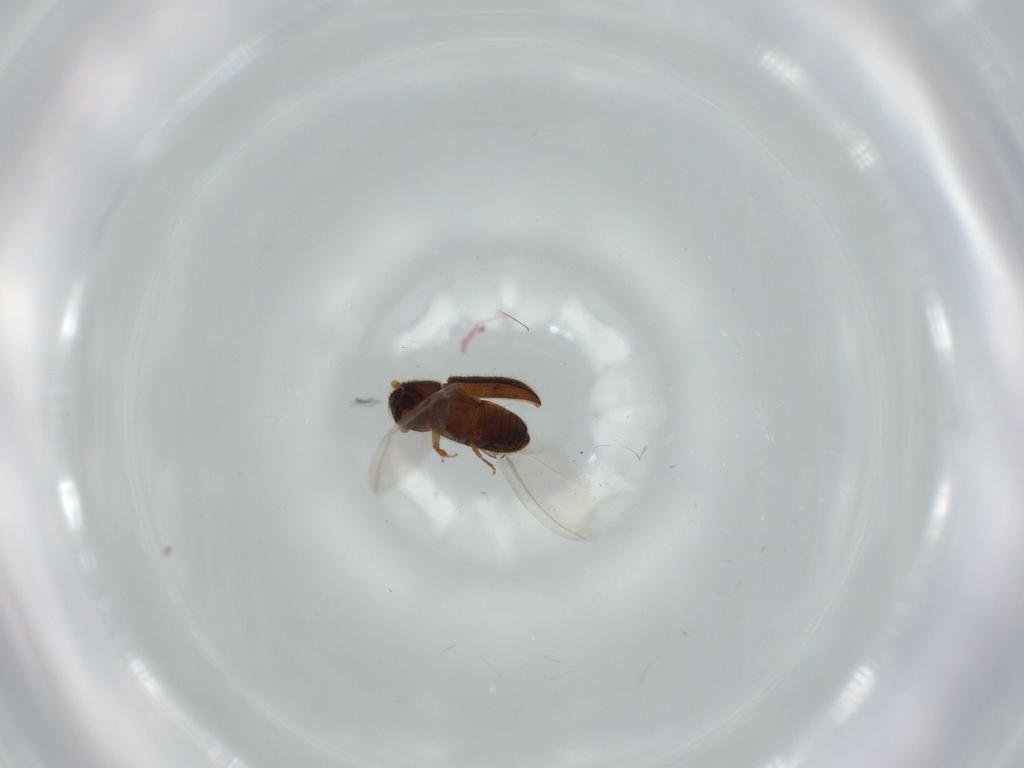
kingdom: Animalia
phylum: Arthropoda
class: Insecta
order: Coleoptera
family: Curculionidae
